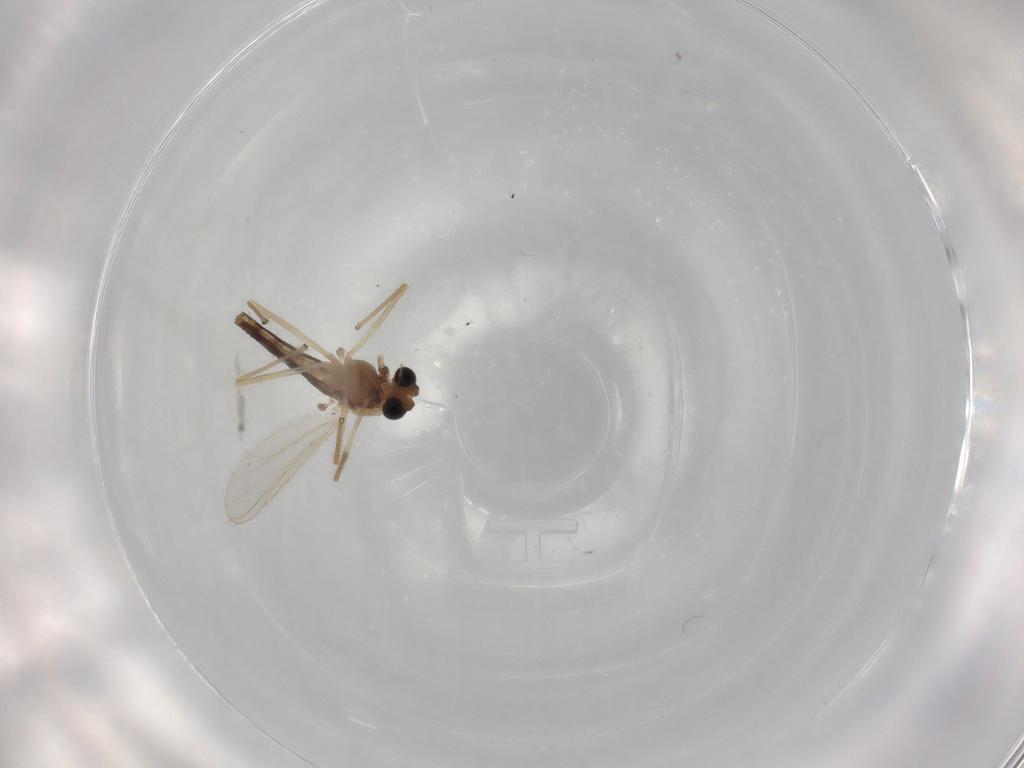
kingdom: Animalia
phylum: Arthropoda
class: Insecta
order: Diptera
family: Chironomidae
